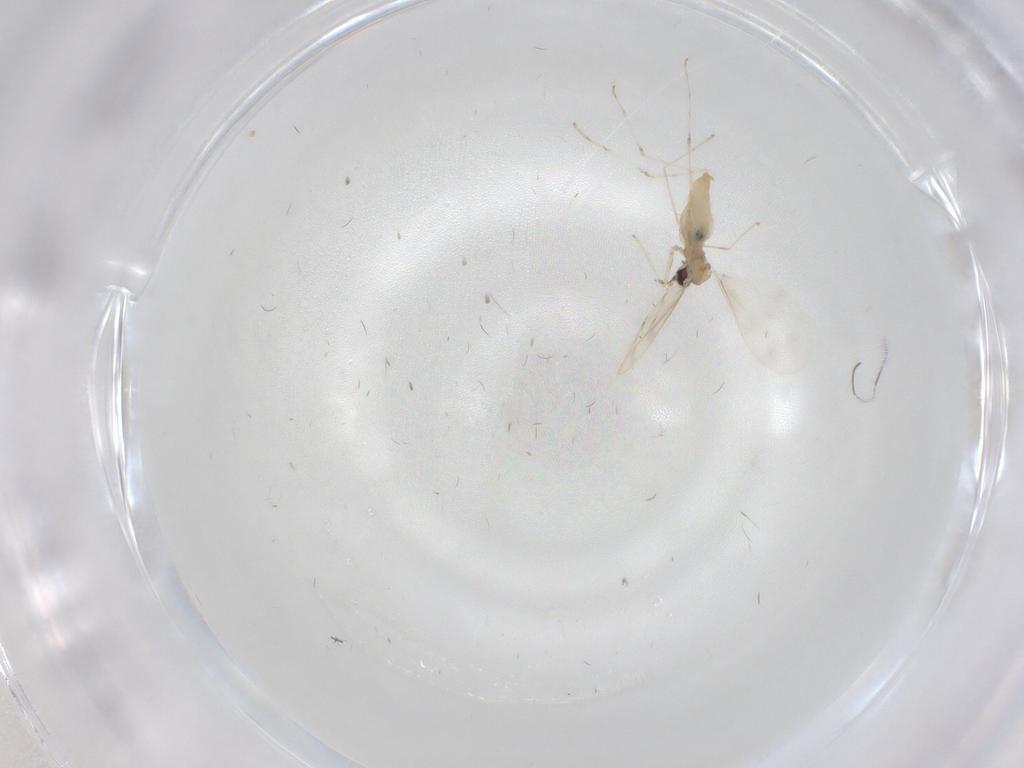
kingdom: Animalia
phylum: Arthropoda
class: Insecta
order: Diptera
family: Cecidomyiidae
